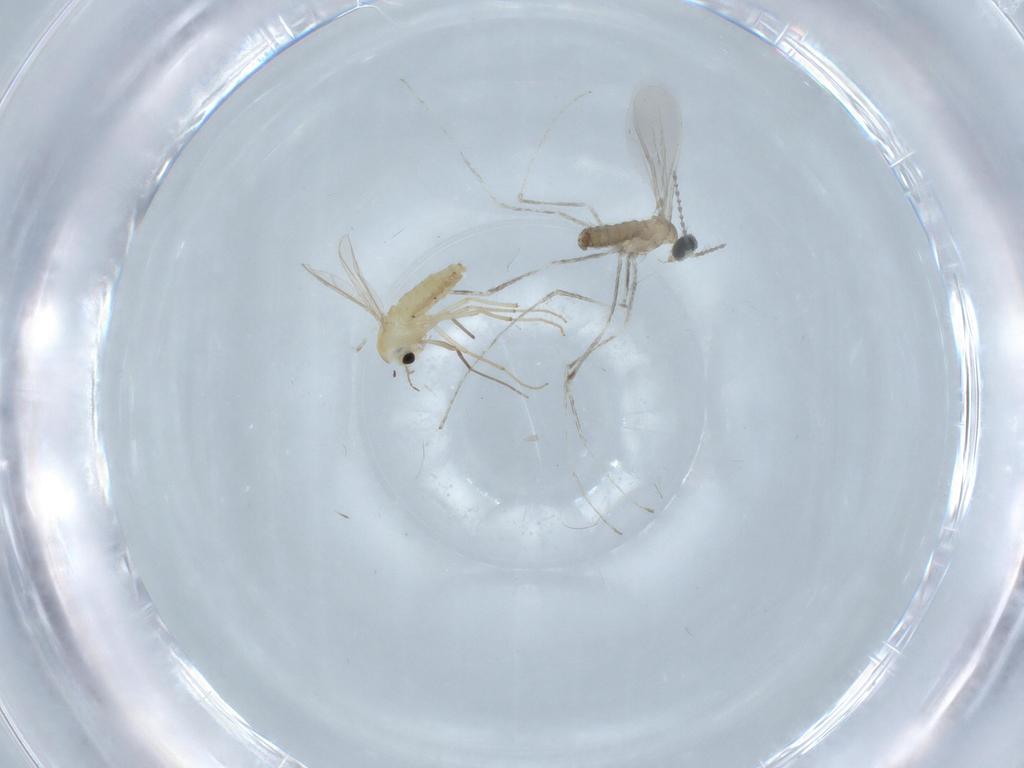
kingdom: Animalia
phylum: Arthropoda
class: Insecta
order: Diptera
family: Chironomidae
